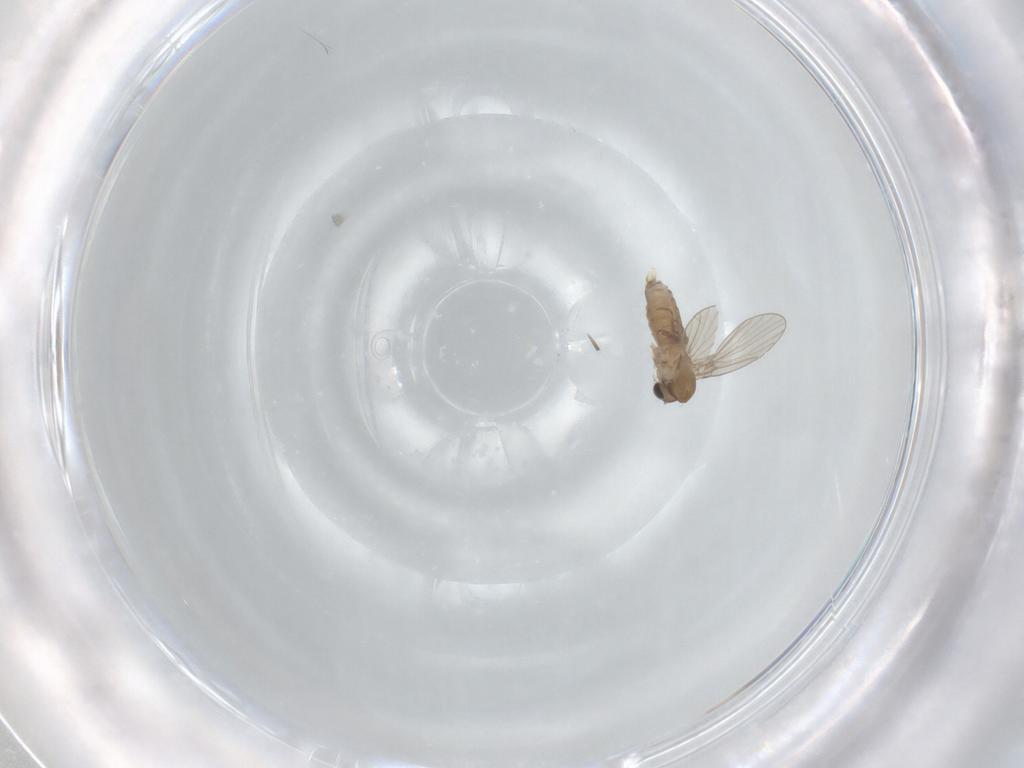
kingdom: Animalia
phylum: Arthropoda
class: Insecta
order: Diptera
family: Psychodidae
